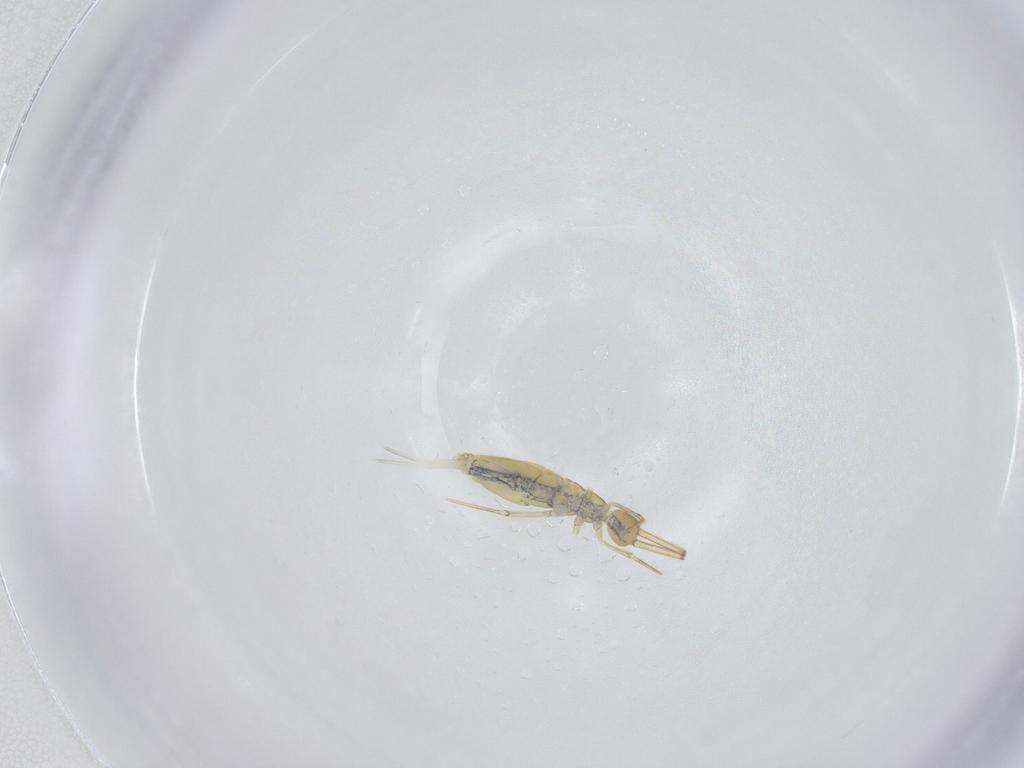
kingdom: Animalia
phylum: Arthropoda
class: Collembola
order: Entomobryomorpha
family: Entomobryidae
